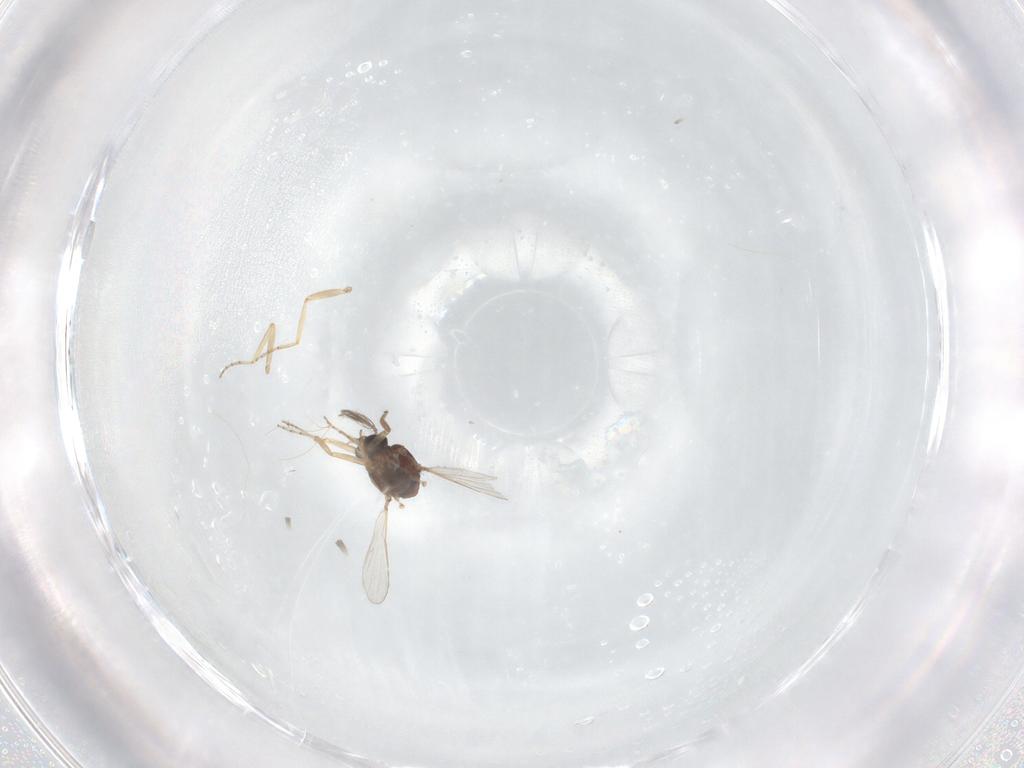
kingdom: Animalia
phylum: Arthropoda
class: Insecta
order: Diptera
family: Ceratopogonidae
